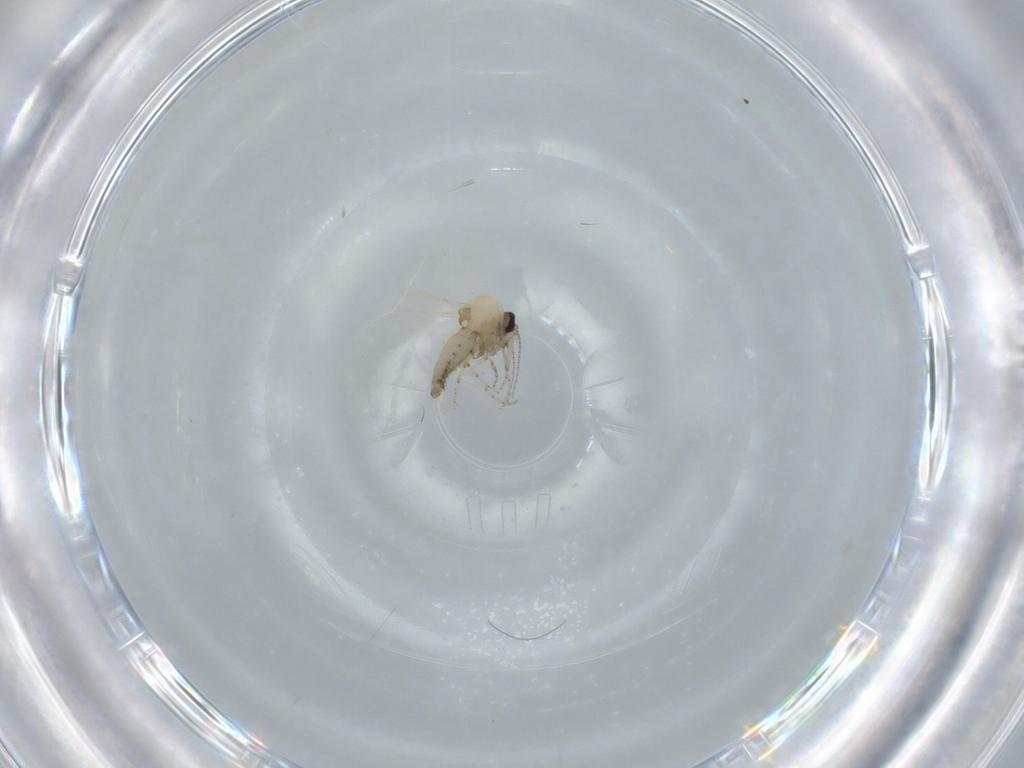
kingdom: Animalia
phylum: Arthropoda
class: Insecta
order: Diptera
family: Ceratopogonidae
